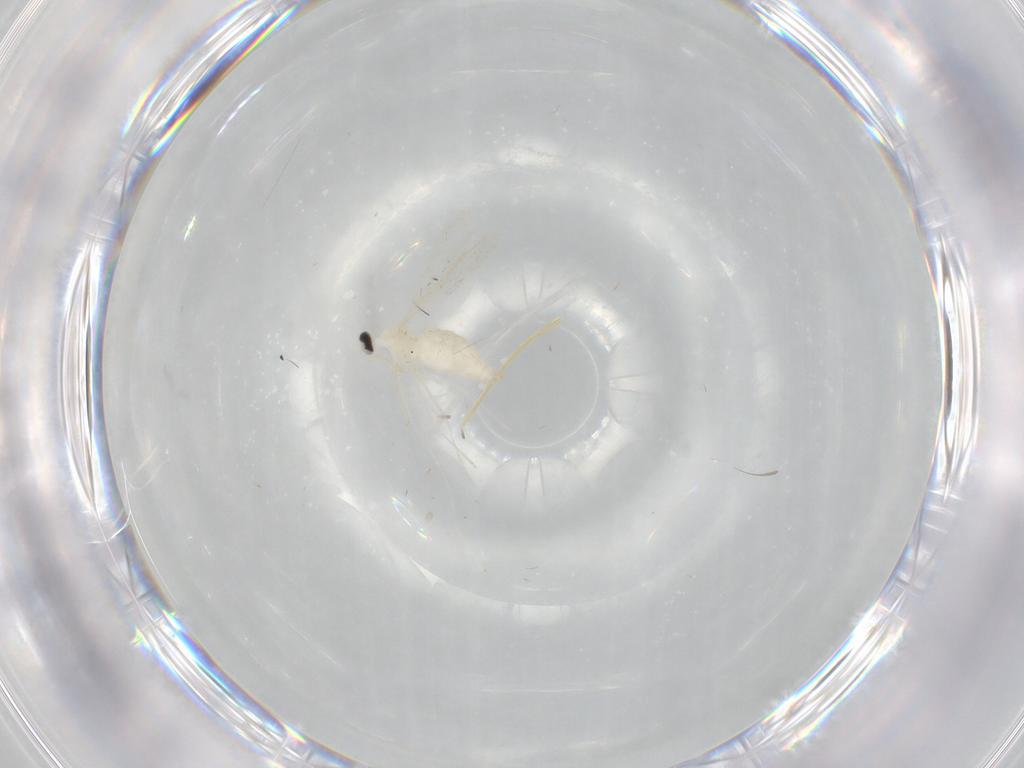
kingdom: Animalia
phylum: Arthropoda
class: Insecta
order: Diptera
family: Cecidomyiidae
